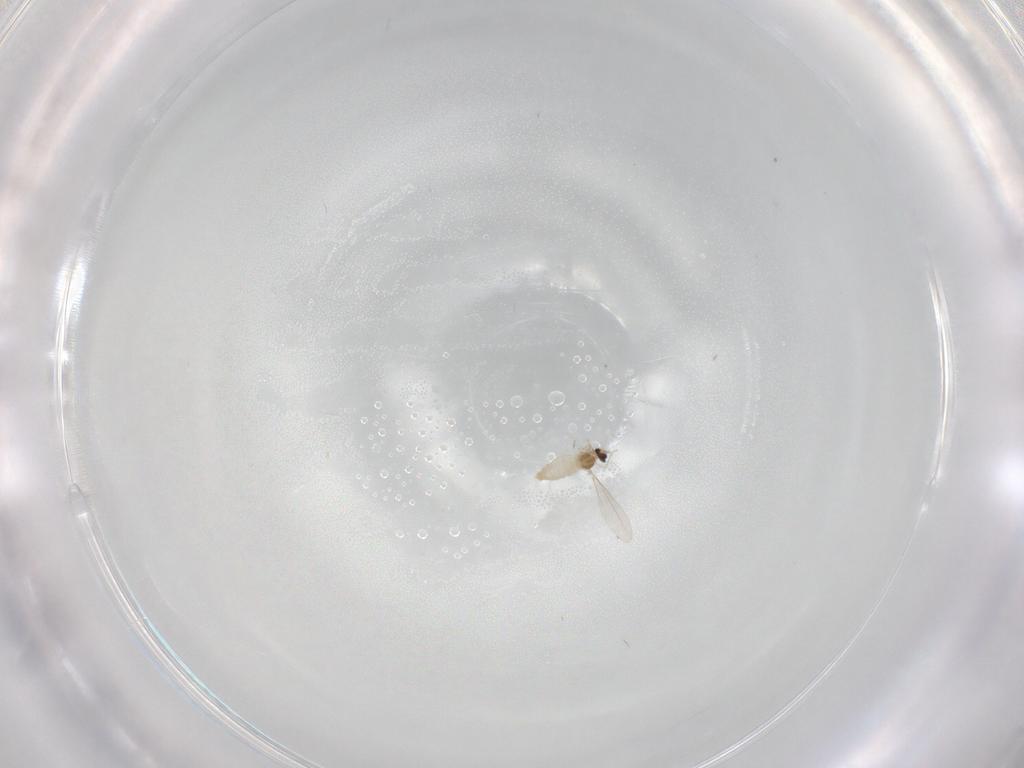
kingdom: Animalia
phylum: Arthropoda
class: Insecta
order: Diptera
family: Cecidomyiidae
